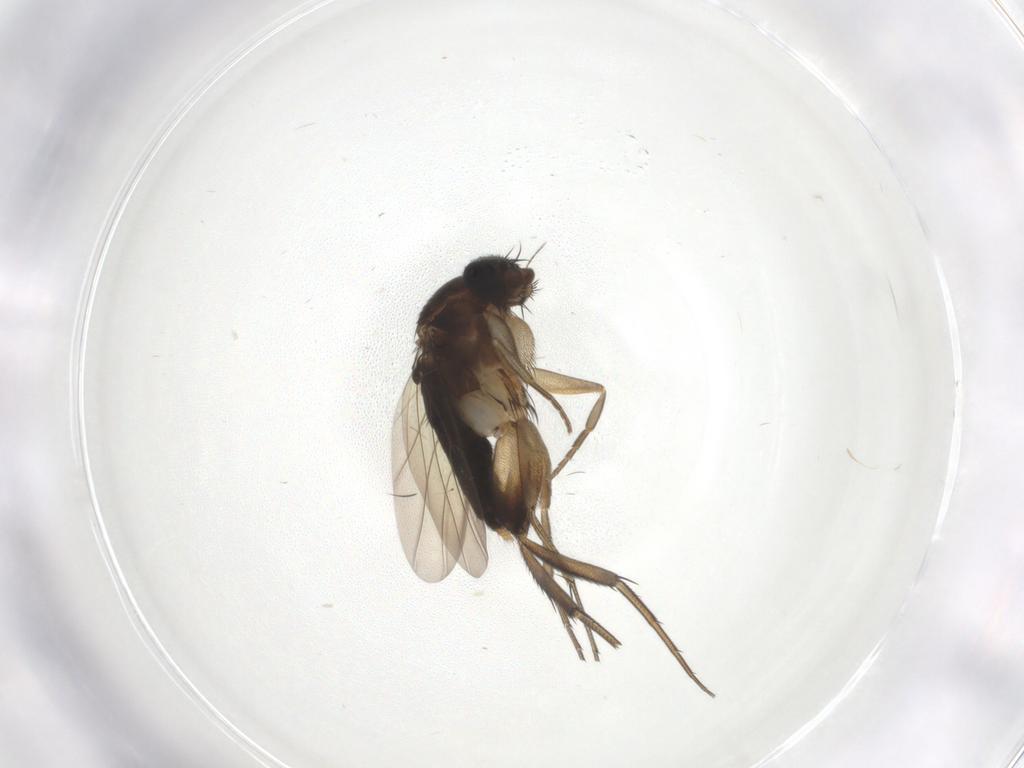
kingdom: Animalia
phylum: Arthropoda
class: Insecta
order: Diptera
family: Phoridae
